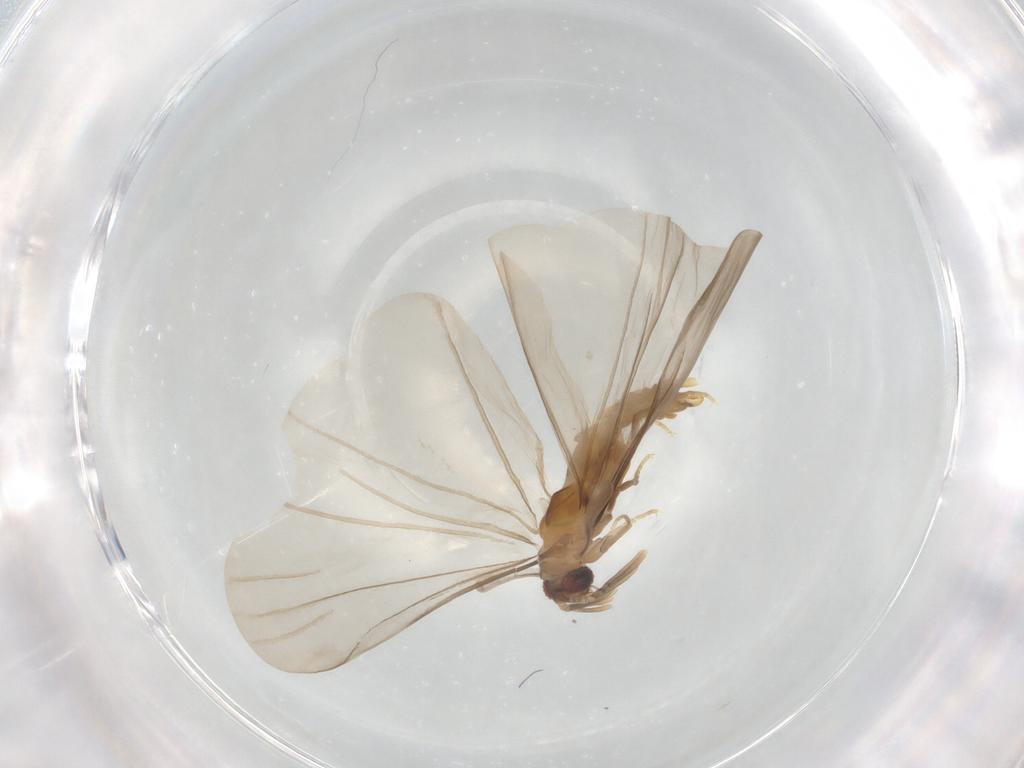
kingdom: Animalia
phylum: Arthropoda
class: Insecta
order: Strepsiptera
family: Mengenillidae
